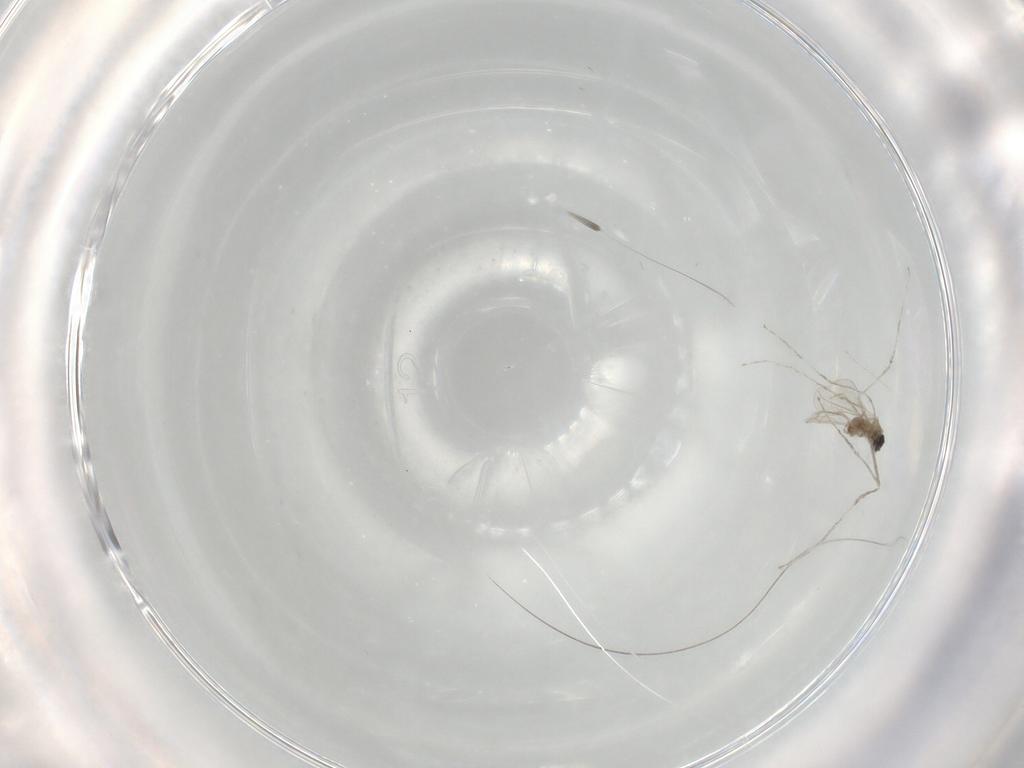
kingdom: Animalia
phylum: Arthropoda
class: Insecta
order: Diptera
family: Cecidomyiidae
